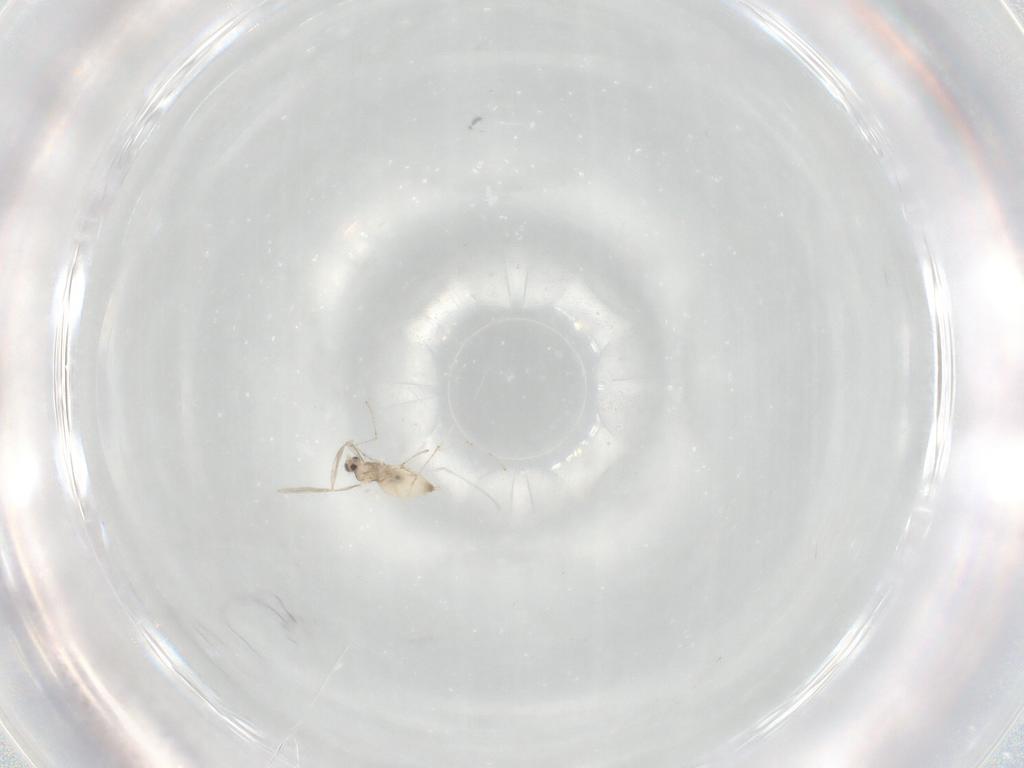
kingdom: Animalia
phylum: Arthropoda
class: Insecta
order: Diptera
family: Cecidomyiidae
